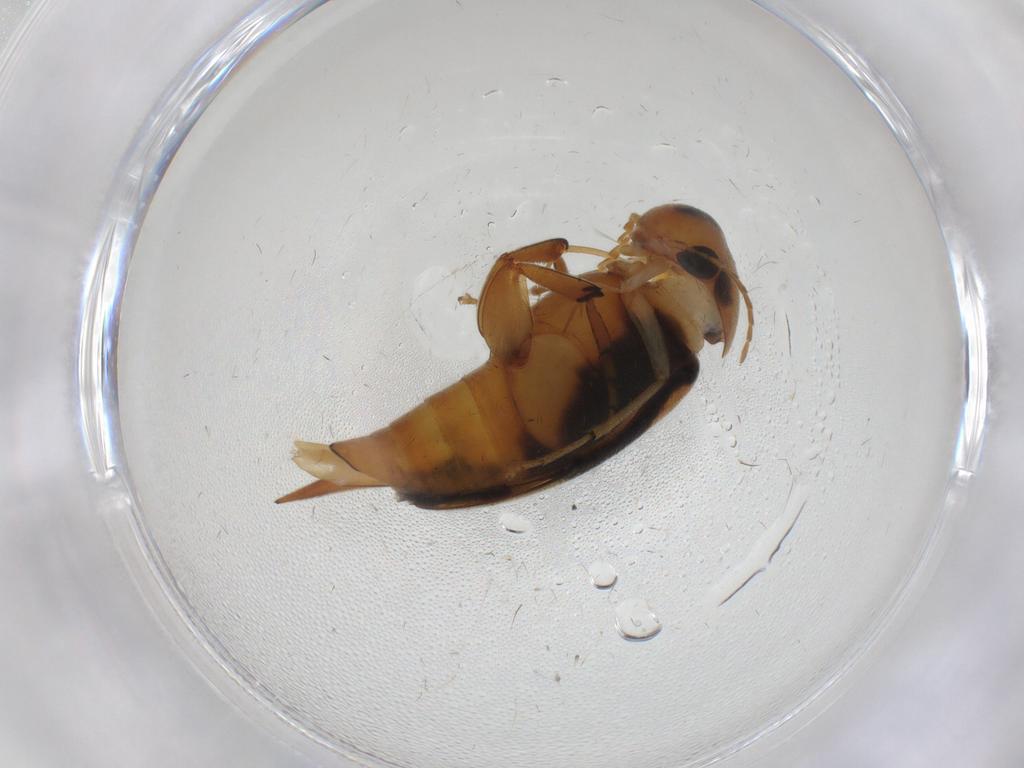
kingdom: Animalia
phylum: Arthropoda
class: Insecta
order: Coleoptera
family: Mordellidae
